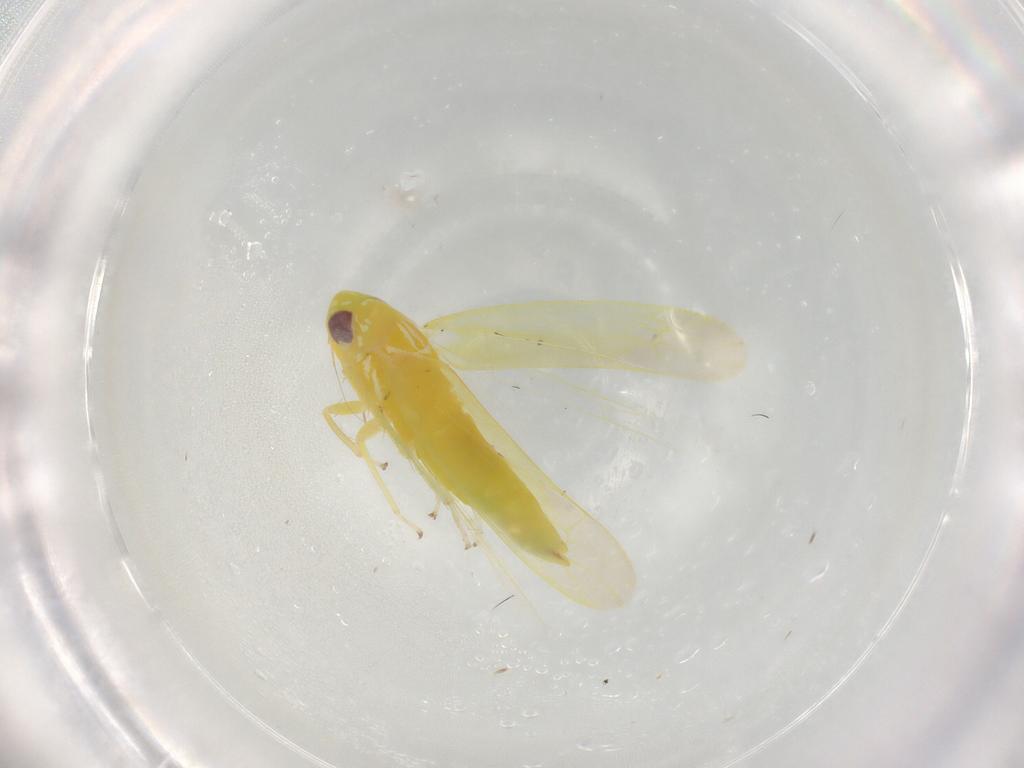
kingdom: Animalia
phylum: Arthropoda
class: Insecta
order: Hemiptera
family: Cicadellidae
